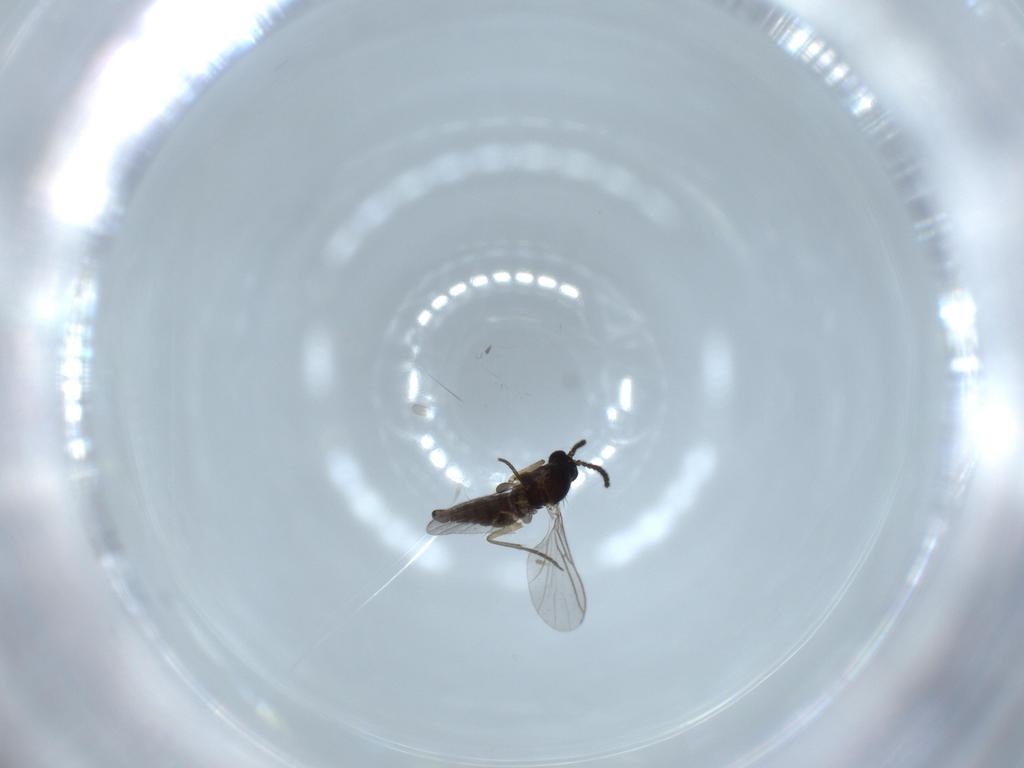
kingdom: Animalia
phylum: Arthropoda
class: Insecta
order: Diptera
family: Sciaridae
